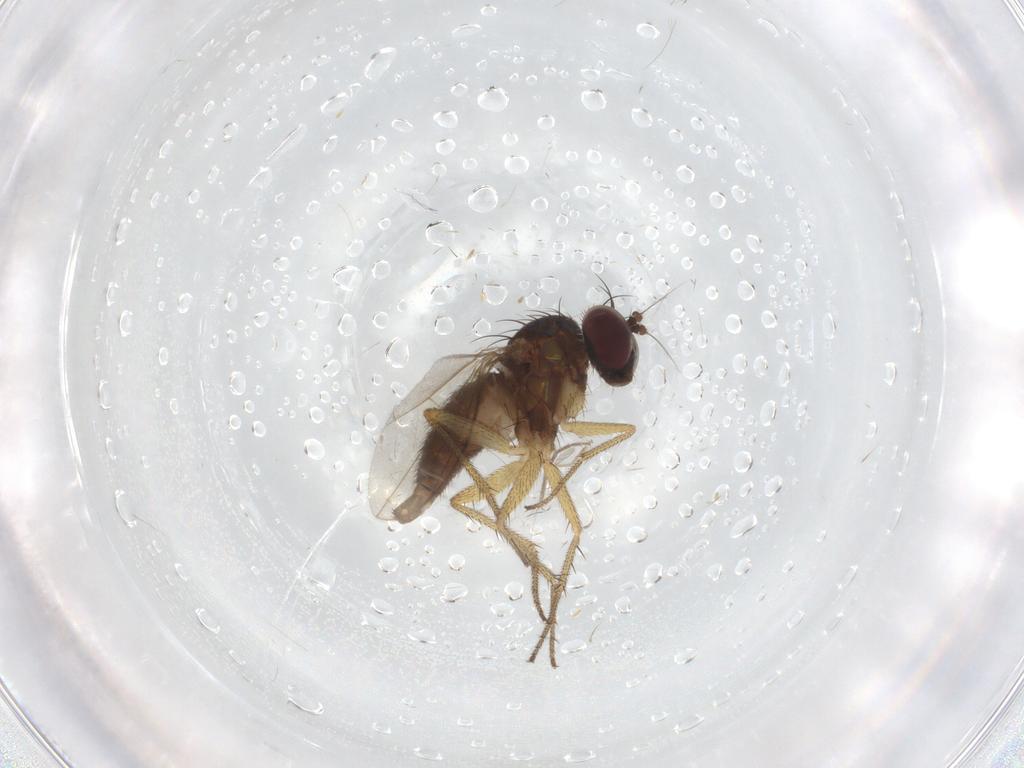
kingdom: Animalia
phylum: Arthropoda
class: Insecta
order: Diptera
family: Dolichopodidae
